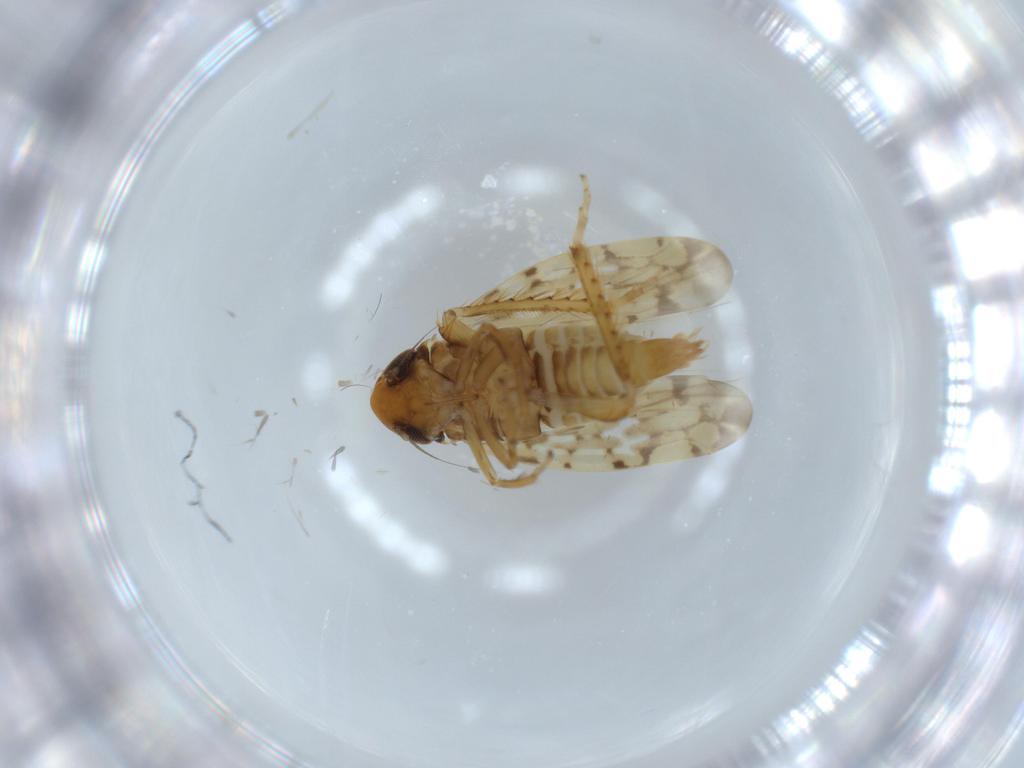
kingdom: Animalia
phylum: Arthropoda
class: Insecta
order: Hemiptera
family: Cicadellidae
